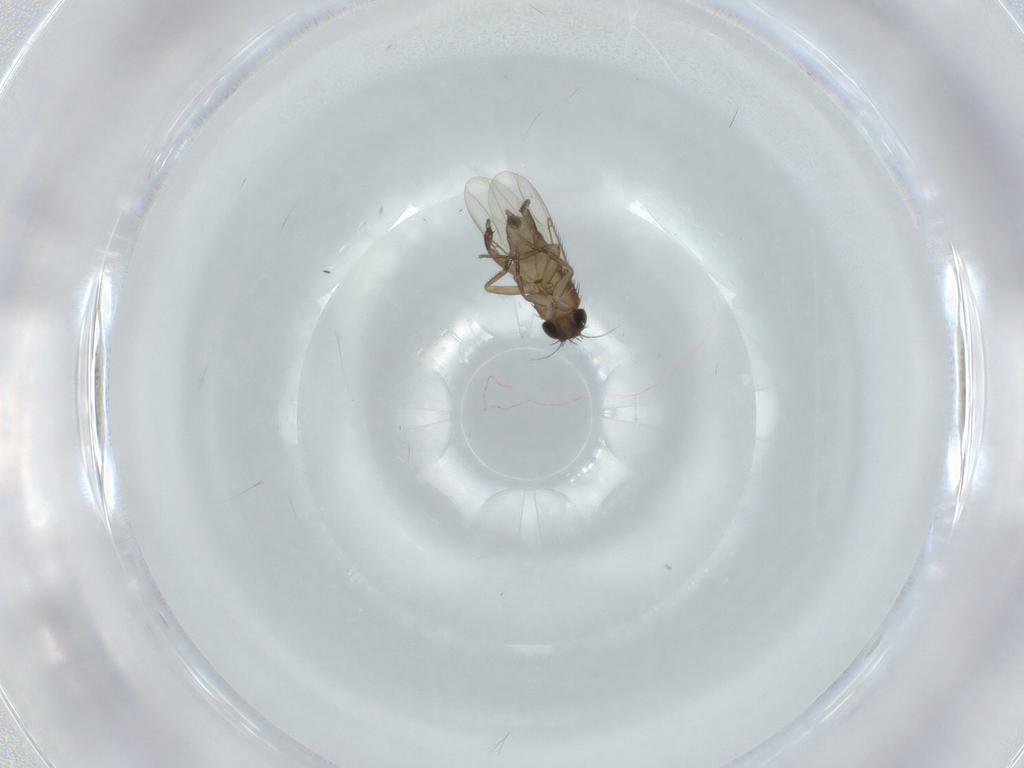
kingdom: Animalia
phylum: Arthropoda
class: Insecta
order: Diptera
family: Phoridae
